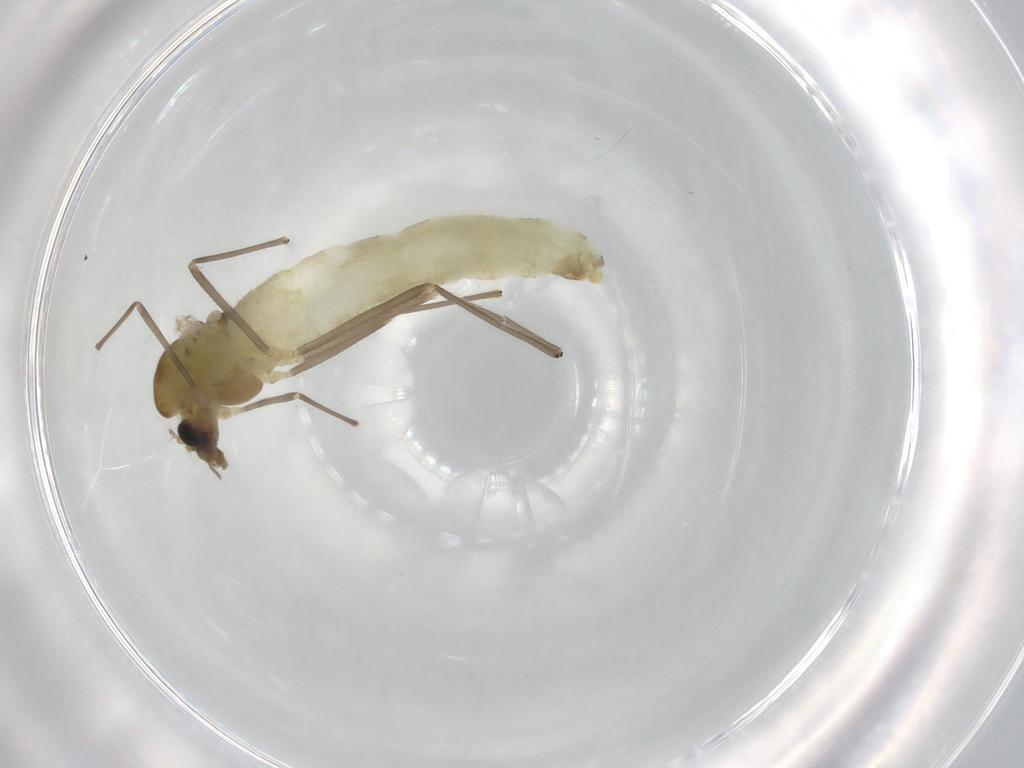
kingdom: Animalia
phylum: Arthropoda
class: Insecta
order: Diptera
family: Chironomidae
